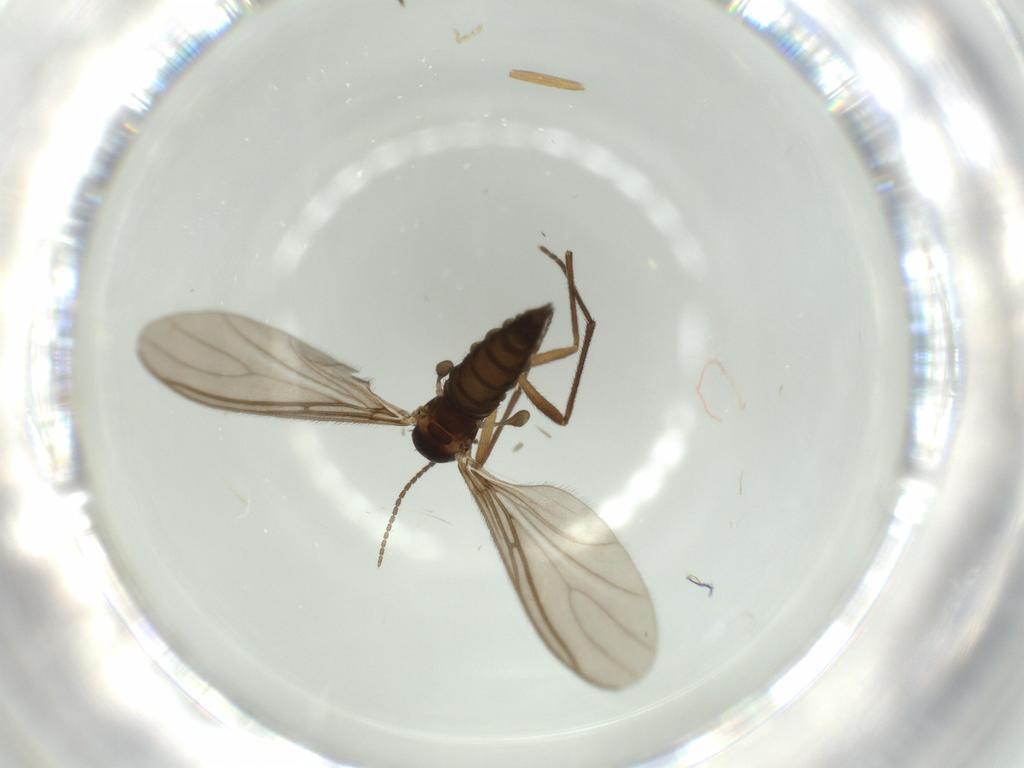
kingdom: Animalia
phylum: Arthropoda
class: Insecta
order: Diptera
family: Sciaridae
